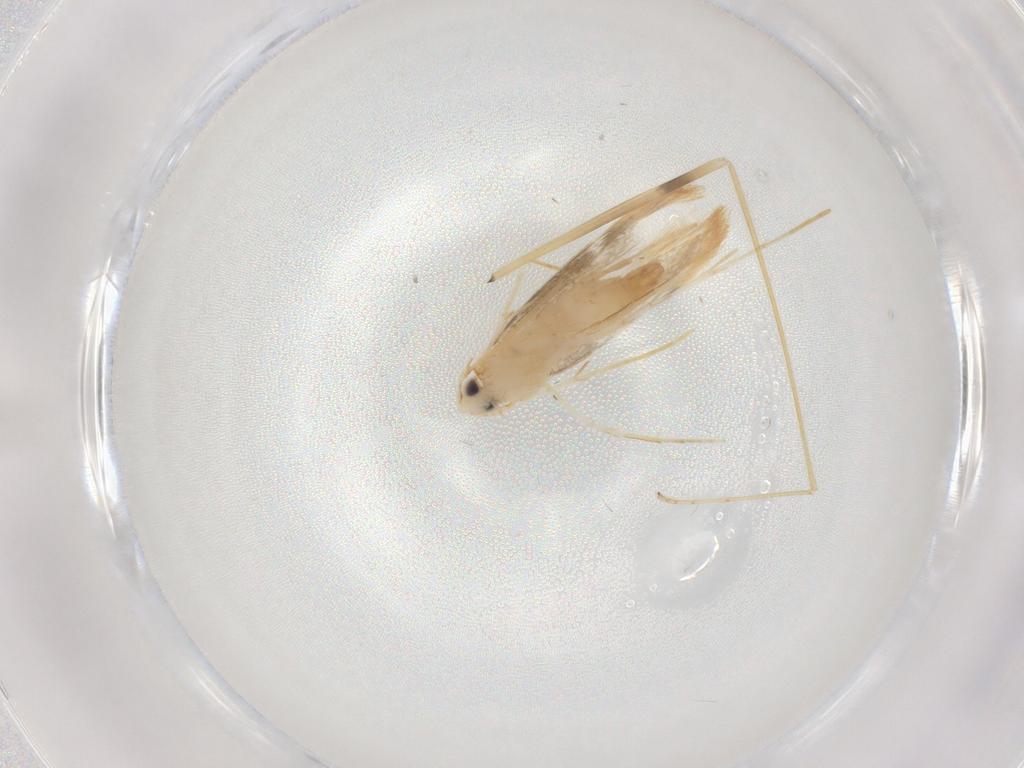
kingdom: Animalia
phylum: Arthropoda
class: Insecta
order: Lepidoptera
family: Tineidae
